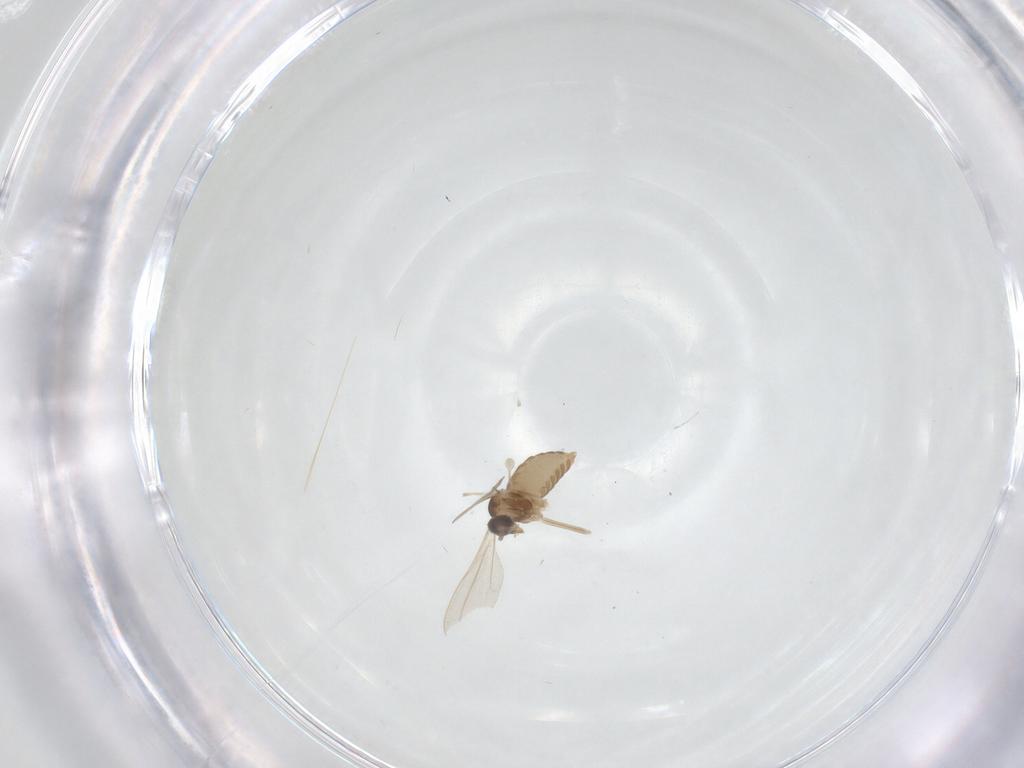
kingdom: Animalia
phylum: Arthropoda
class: Insecta
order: Diptera
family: Cecidomyiidae
